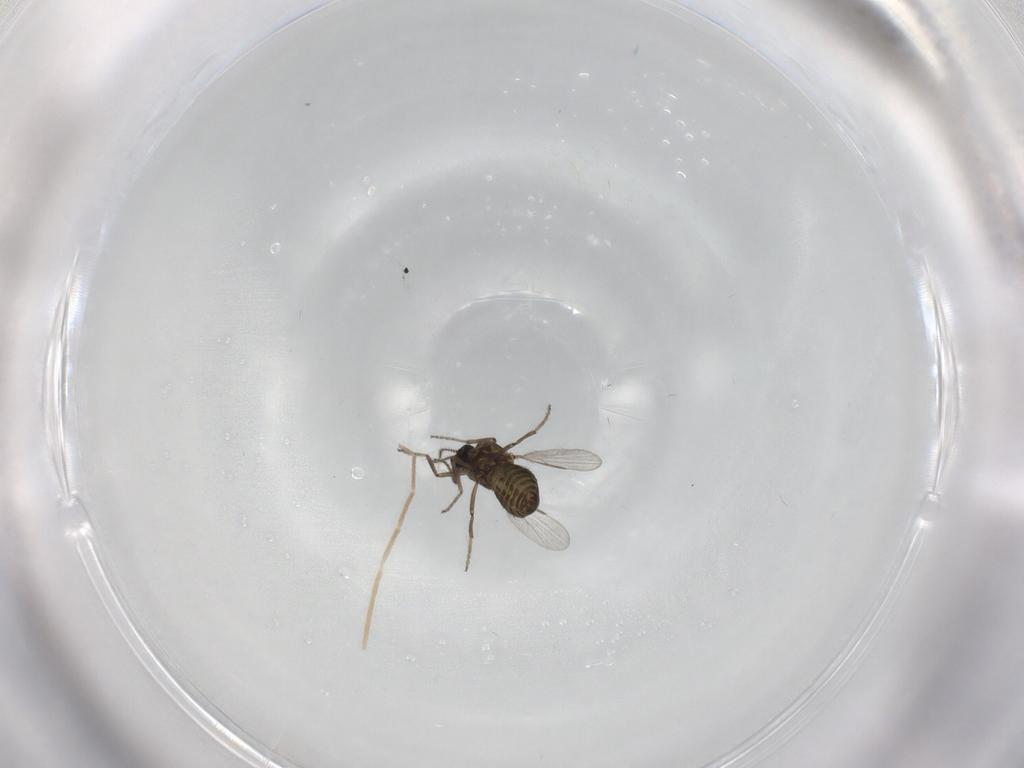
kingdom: Animalia
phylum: Arthropoda
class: Insecta
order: Diptera
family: Ceratopogonidae
